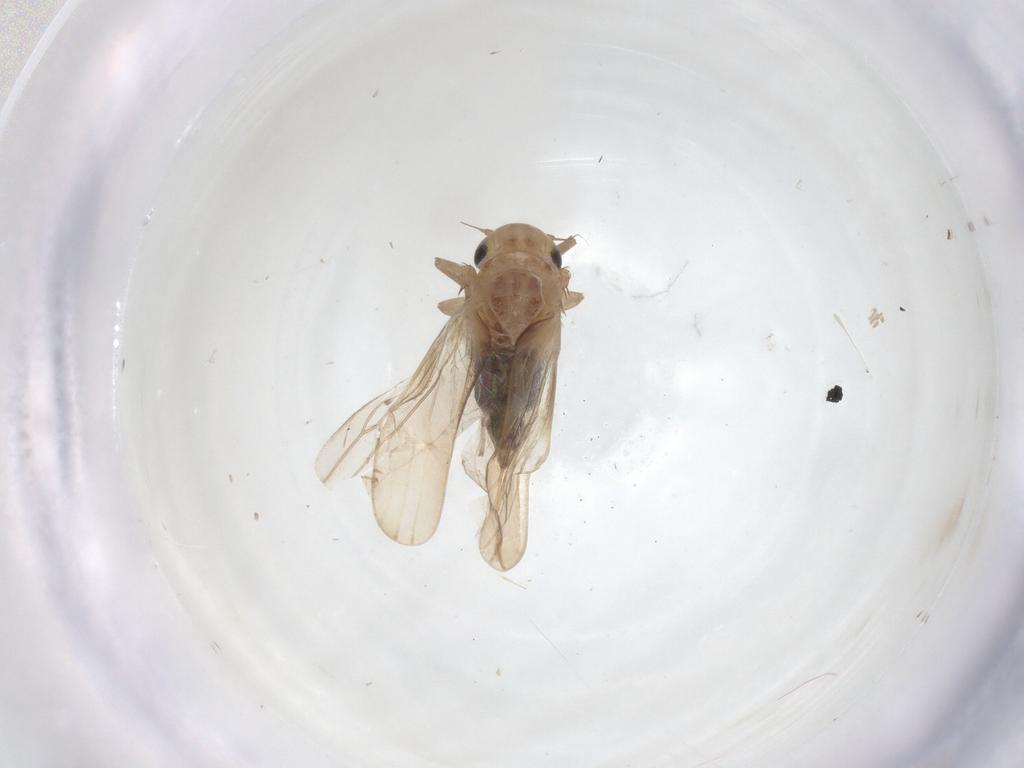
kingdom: Animalia
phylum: Arthropoda
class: Insecta
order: Hemiptera
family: Cicadellidae
